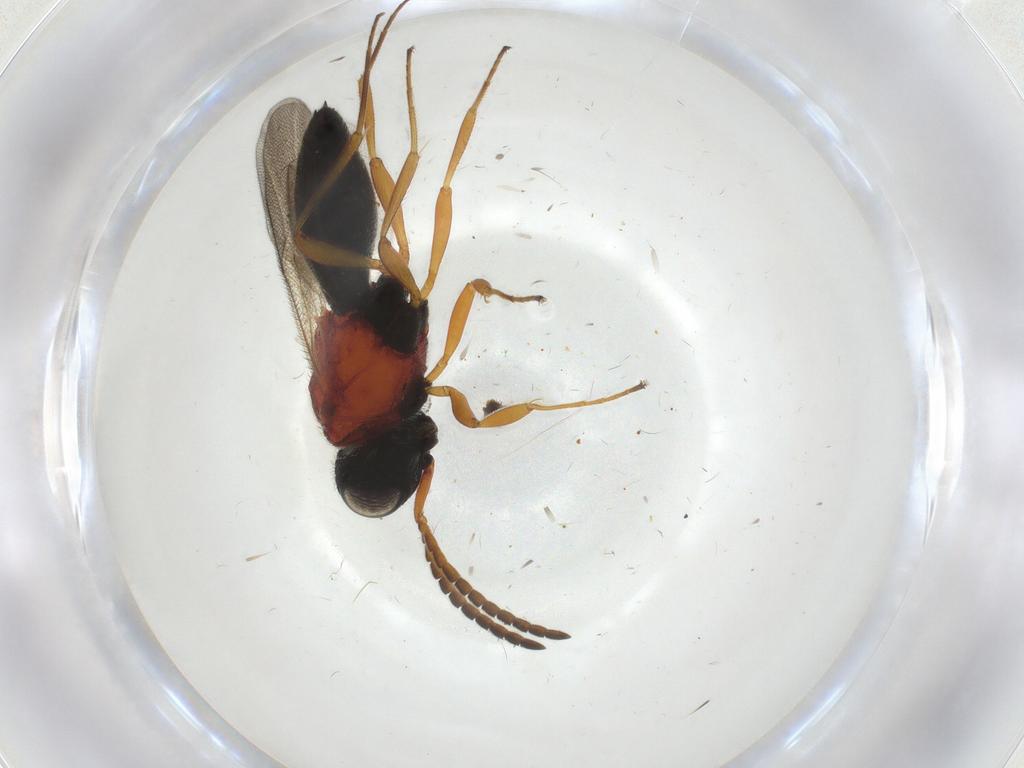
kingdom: Animalia
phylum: Arthropoda
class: Insecta
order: Hymenoptera
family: Scelionidae
